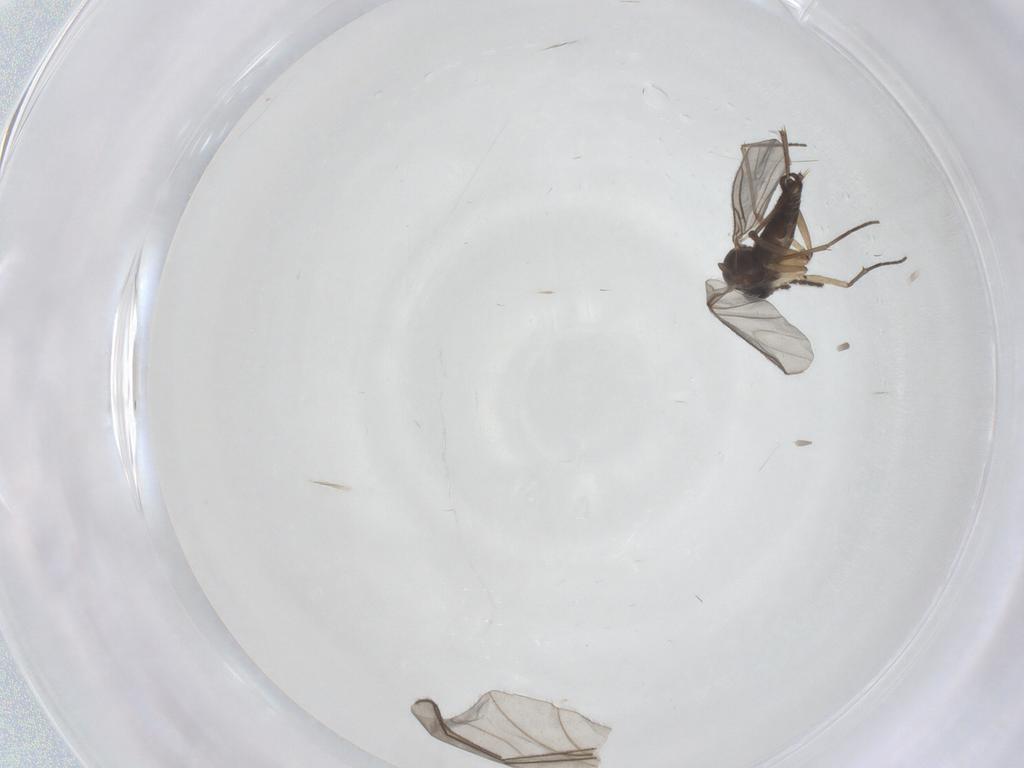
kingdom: Animalia
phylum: Arthropoda
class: Insecta
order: Diptera
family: Sciaridae
